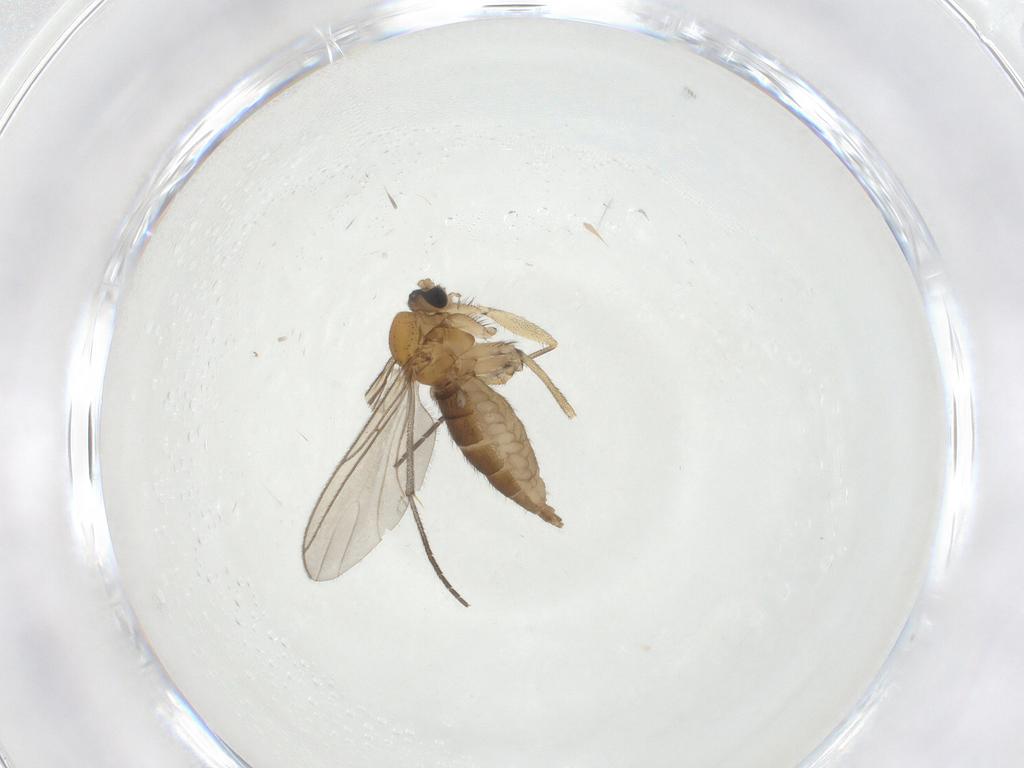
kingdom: Animalia
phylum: Arthropoda
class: Insecta
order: Diptera
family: Sciaridae
